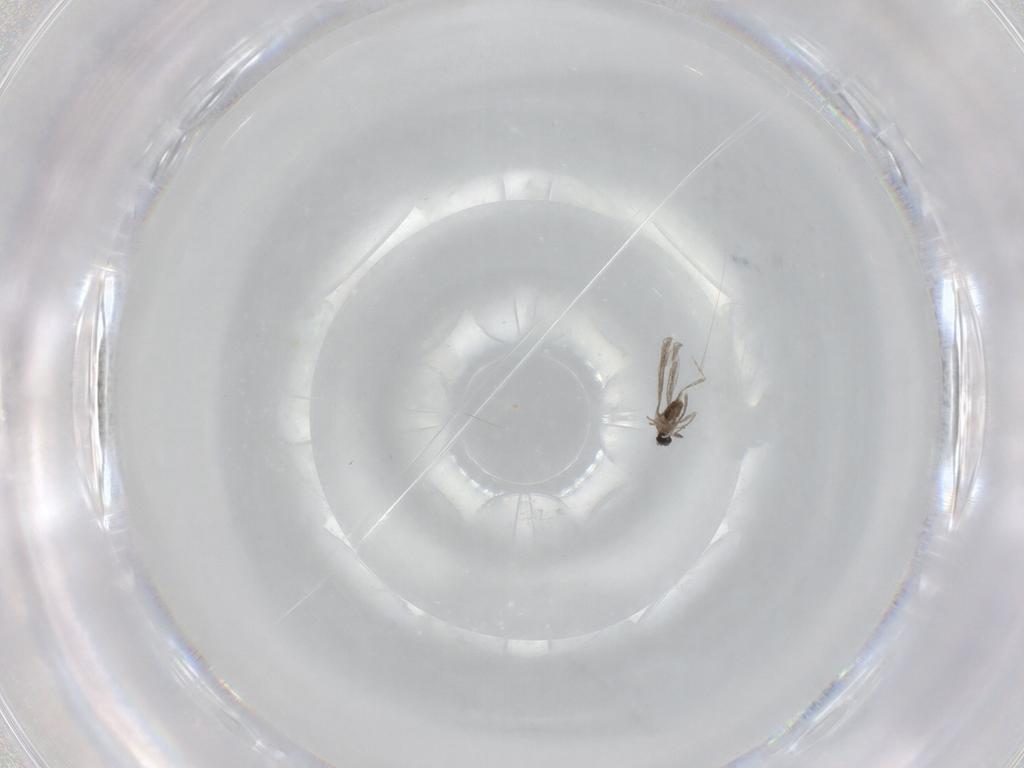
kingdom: Animalia
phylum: Arthropoda
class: Insecta
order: Diptera
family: Cecidomyiidae
